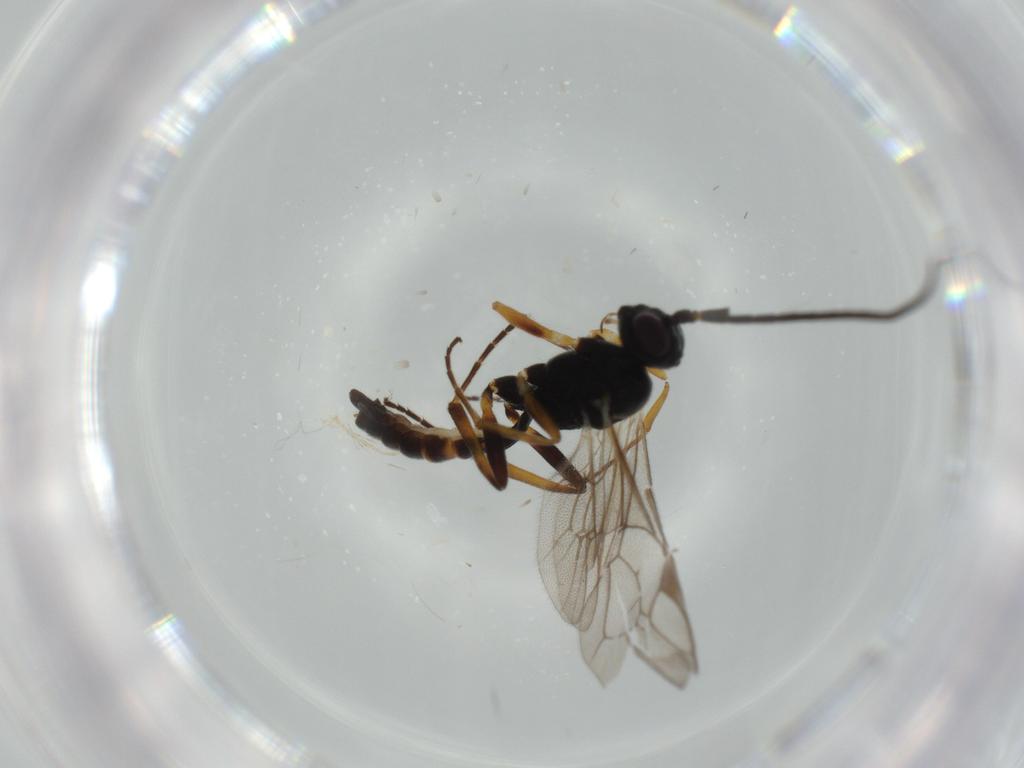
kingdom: Animalia
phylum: Arthropoda
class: Insecta
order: Hymenoptera
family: Ichneumonidae
